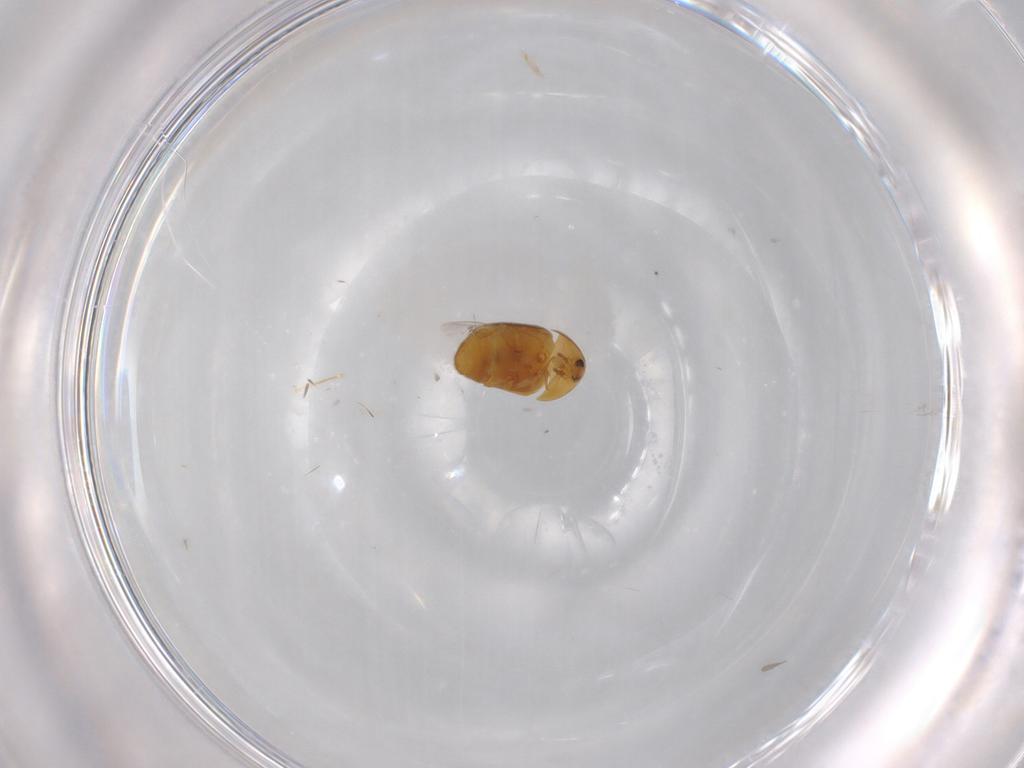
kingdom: Animalia
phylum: Arthropoda
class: Insecta
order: Coleoptera
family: Corylophidae
